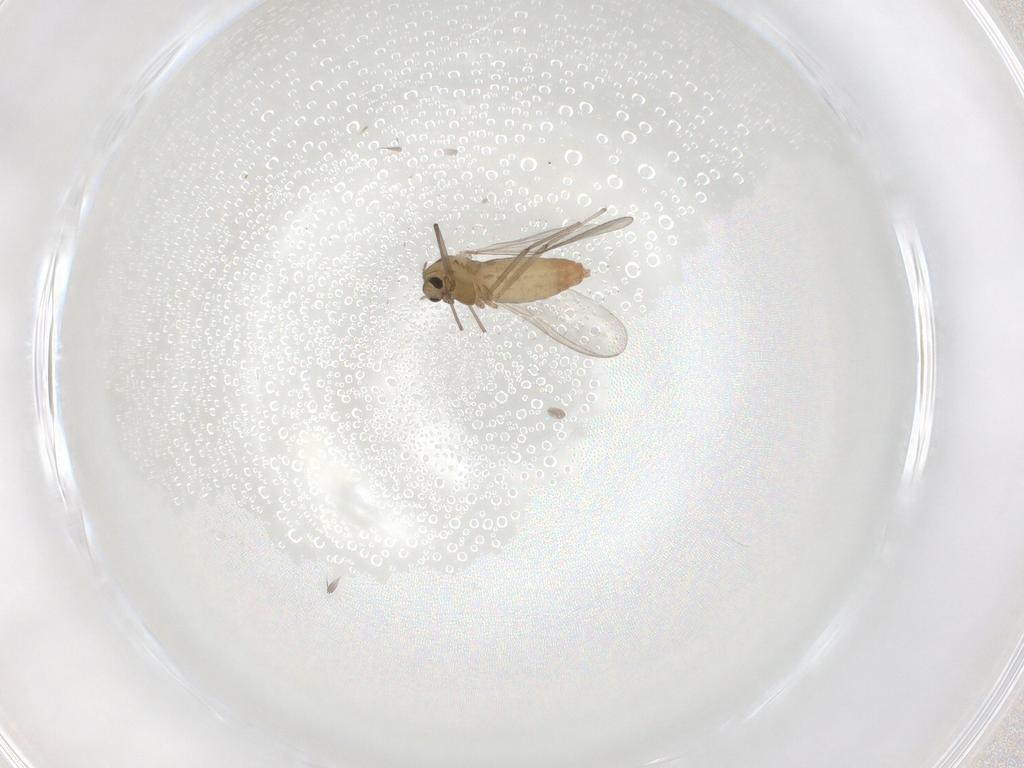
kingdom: Animalia
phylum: Arthropoda
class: Insecta
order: Diptera
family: Chironomidae
